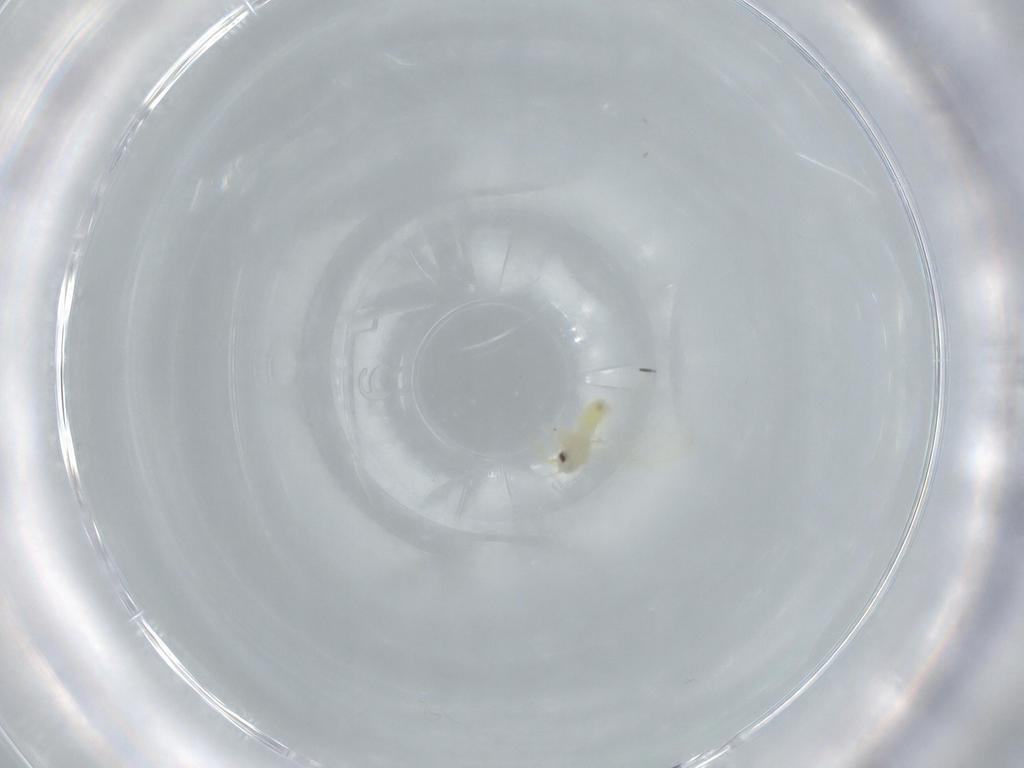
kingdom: Animalia
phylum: Arthropoda
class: Insecta
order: Hemiptera
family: Aleyrodidae
